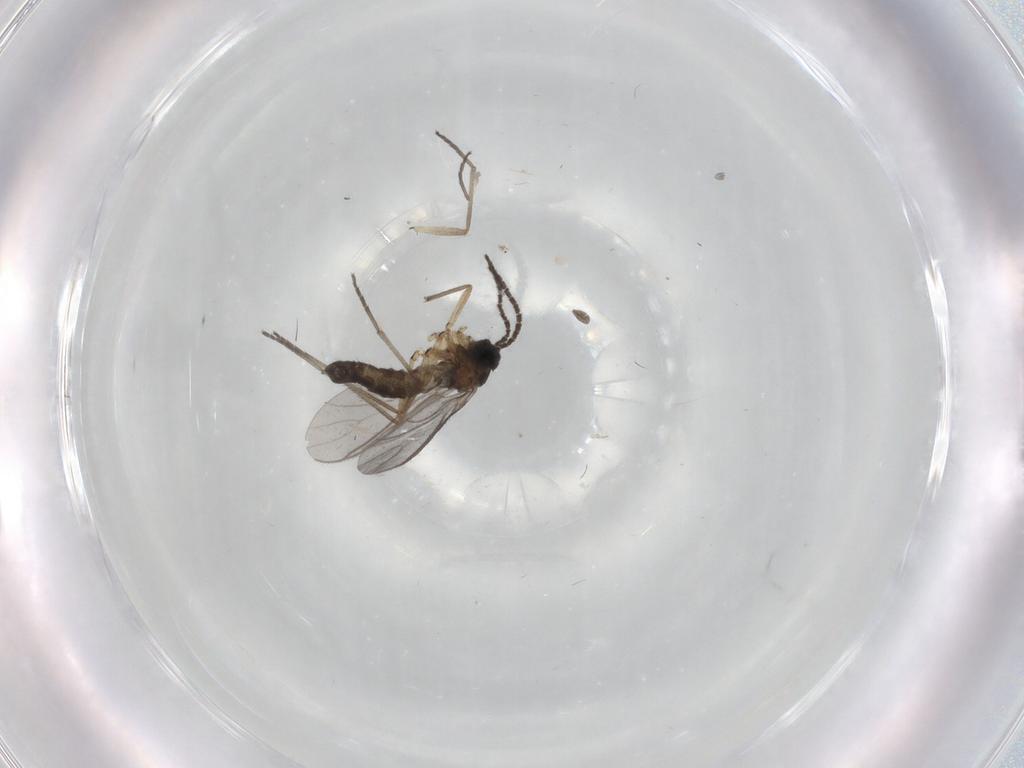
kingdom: Animalia
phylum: Arthropoda
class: Insecta
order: Diptera
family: Sciaridae
